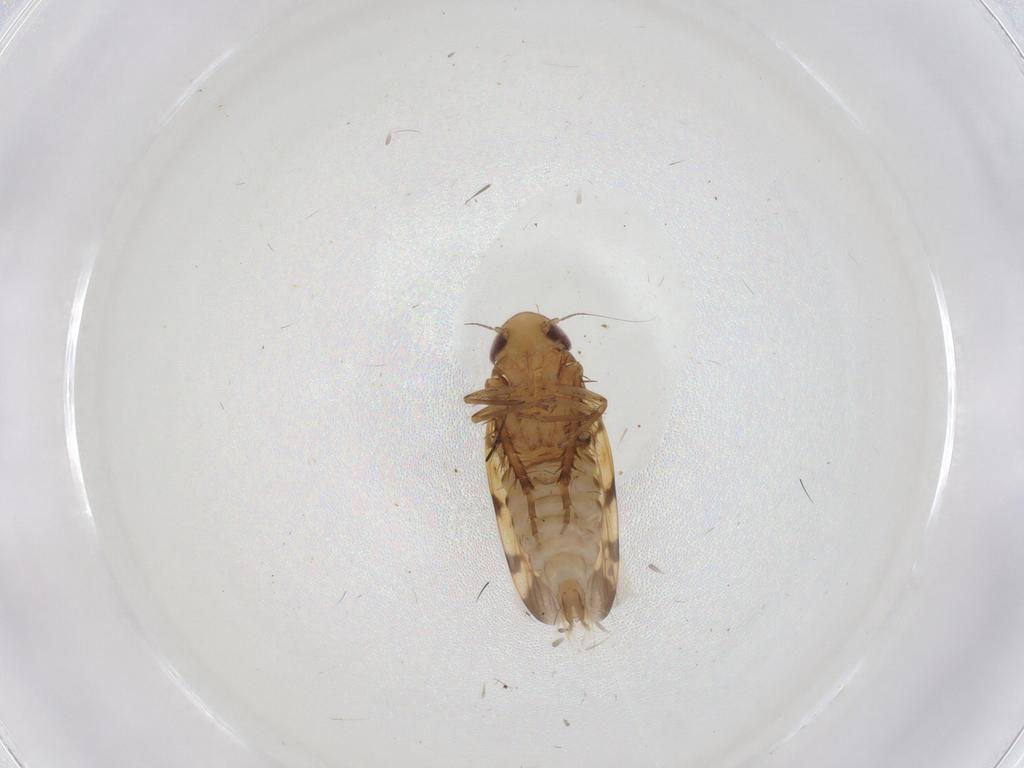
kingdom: Animalia
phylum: Arthropoda
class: Insecta
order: Hemiptera
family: Cicadellidae
